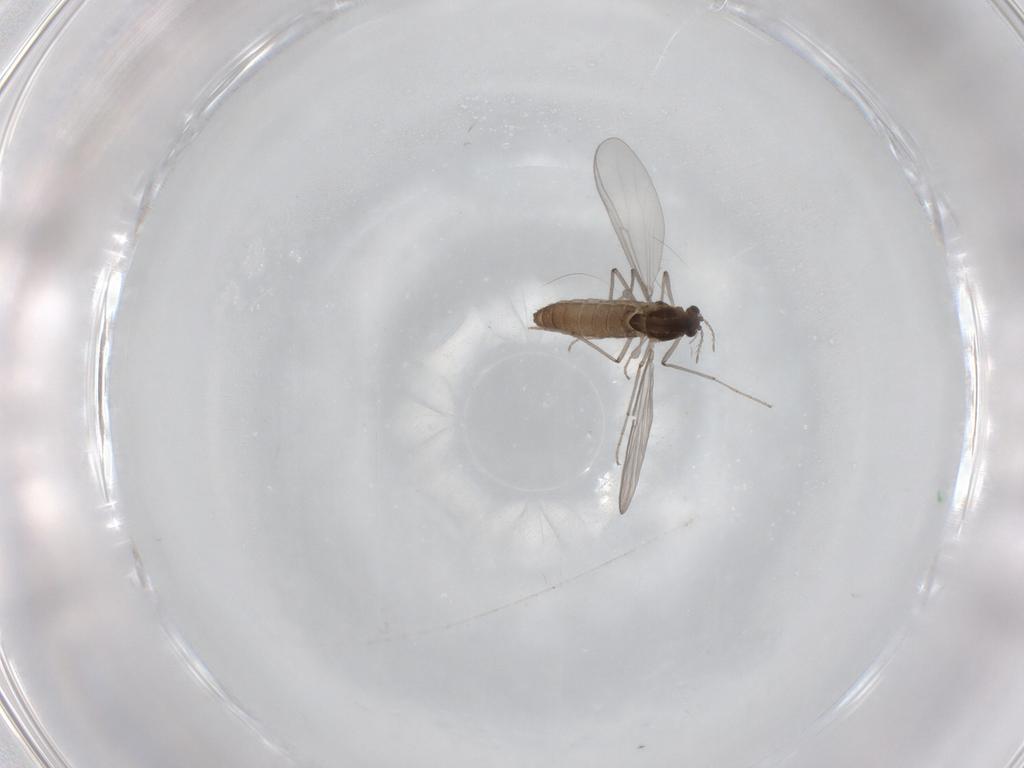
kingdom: Animalia
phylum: Arthropoda
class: Insecta
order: Diptera
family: Chironomidae
